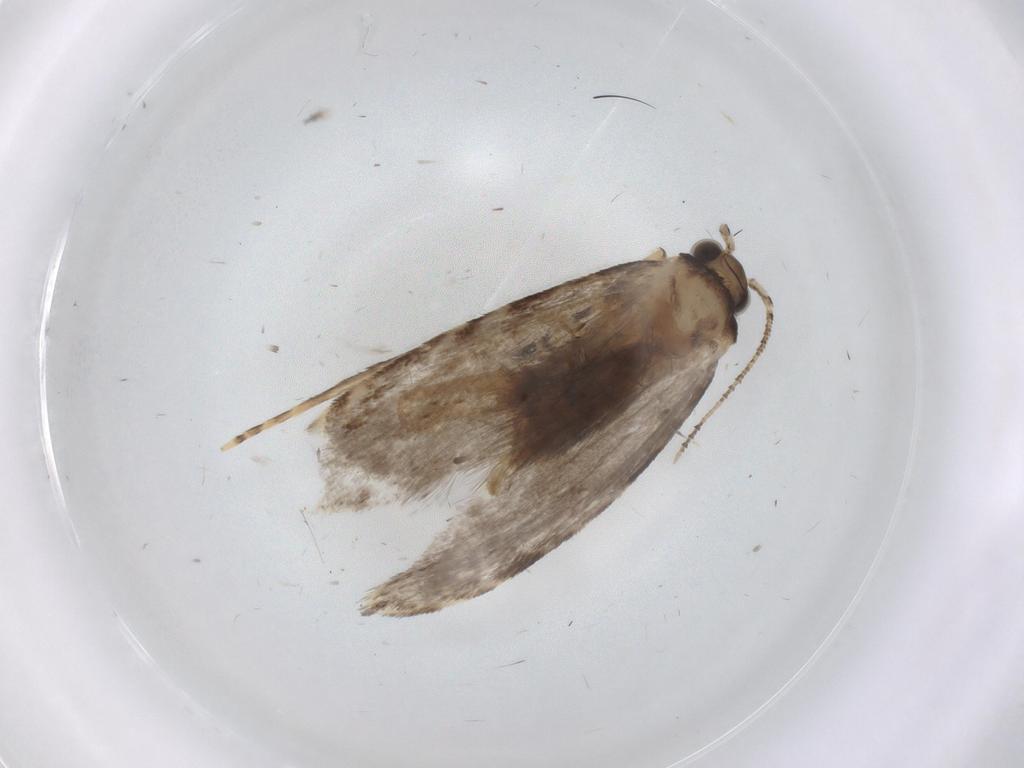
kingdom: Animalia
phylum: Arthropoda
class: Insecta
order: Lepidoptera
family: Tineidae
